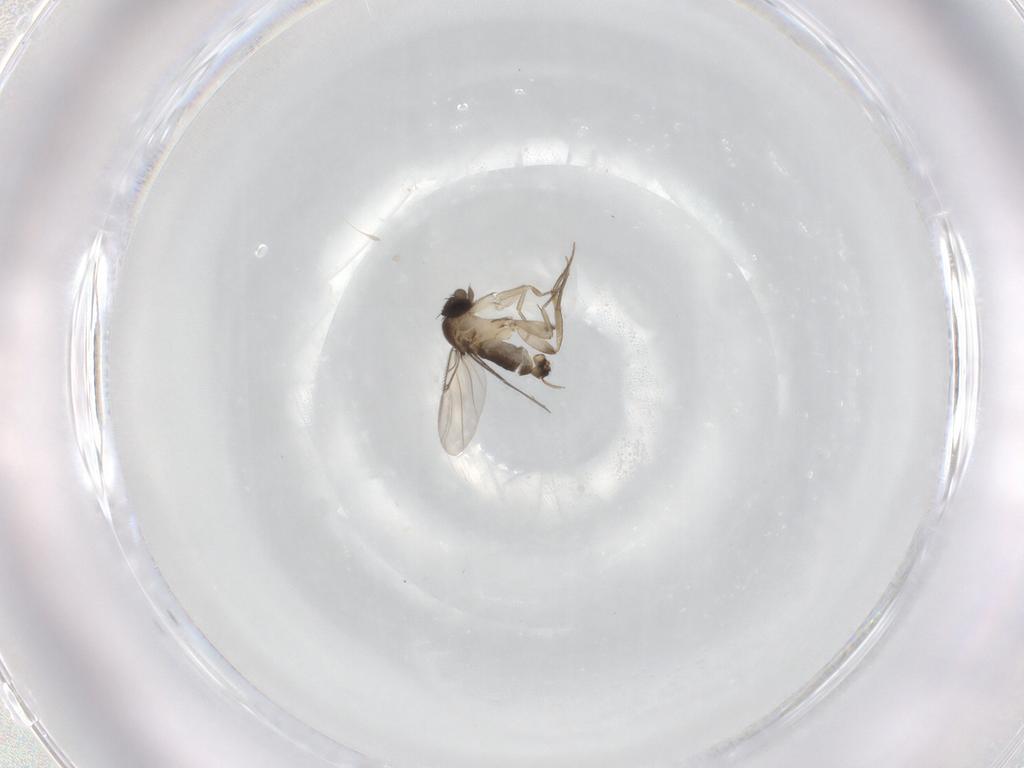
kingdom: Animalia
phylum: Arthropoda
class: Insecta
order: Diptera
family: Phoridae
